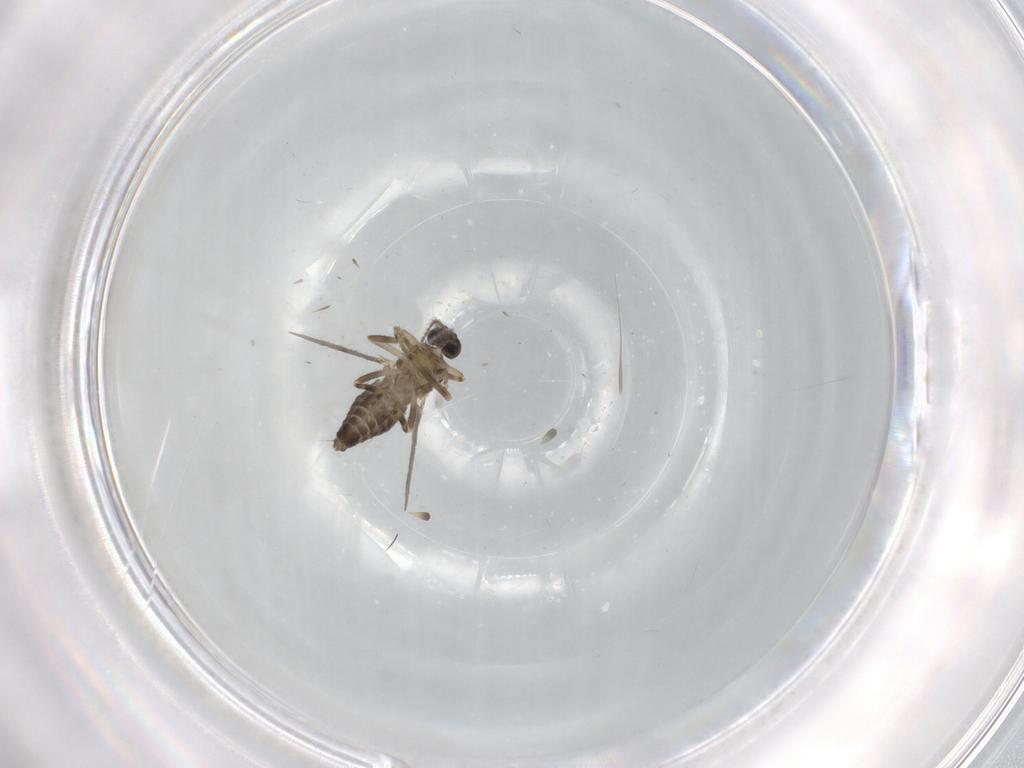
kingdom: Animalia
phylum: Arthropoda
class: Insecta
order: Diptera
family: Ceratopogonidae
